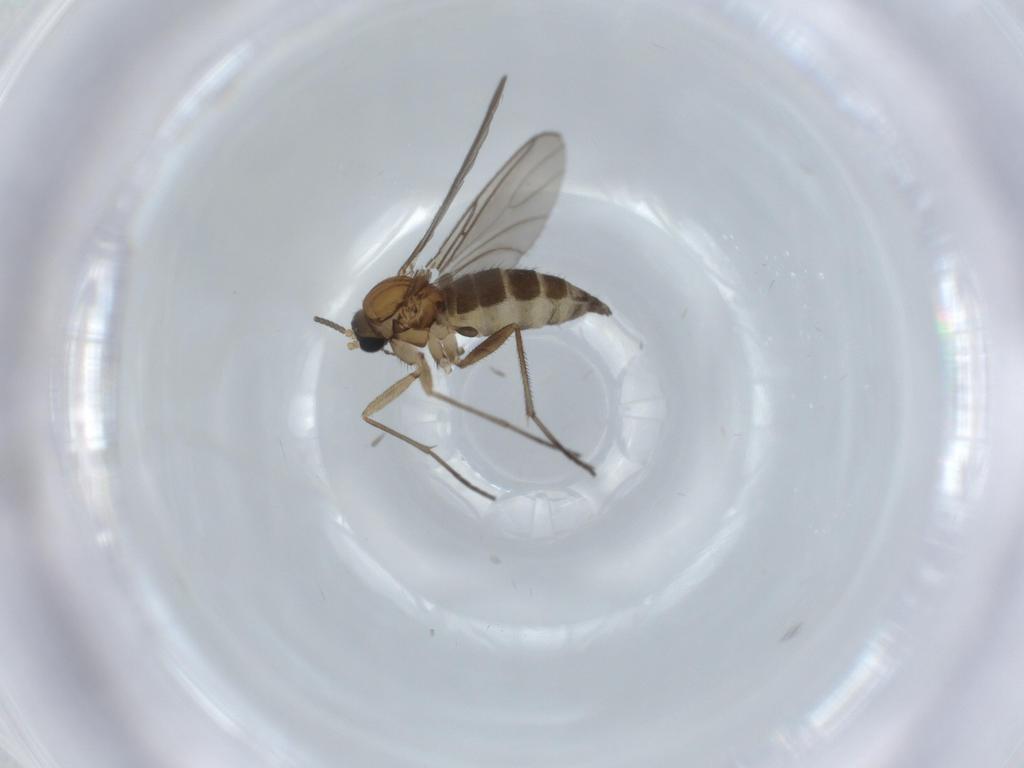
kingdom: Animalia
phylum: Arthropoda
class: Insecta
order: Diptera
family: Sciaridae
